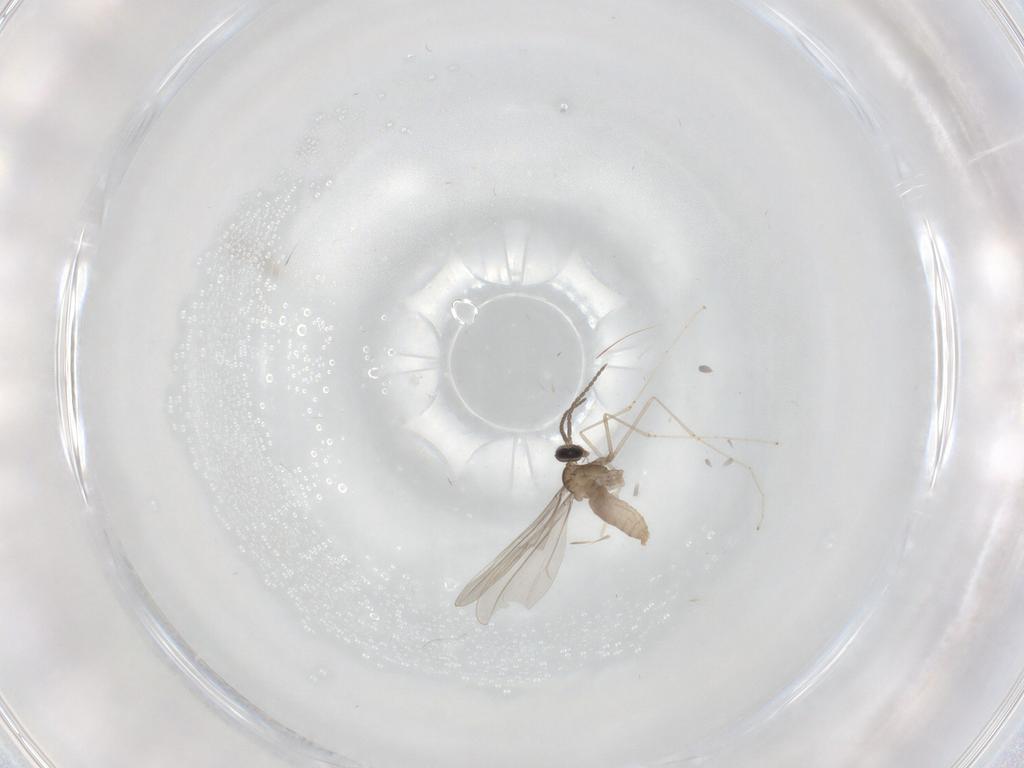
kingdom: Animalia
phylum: Arthropoda
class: Insecta
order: Diptera
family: Cecidomyiidae
